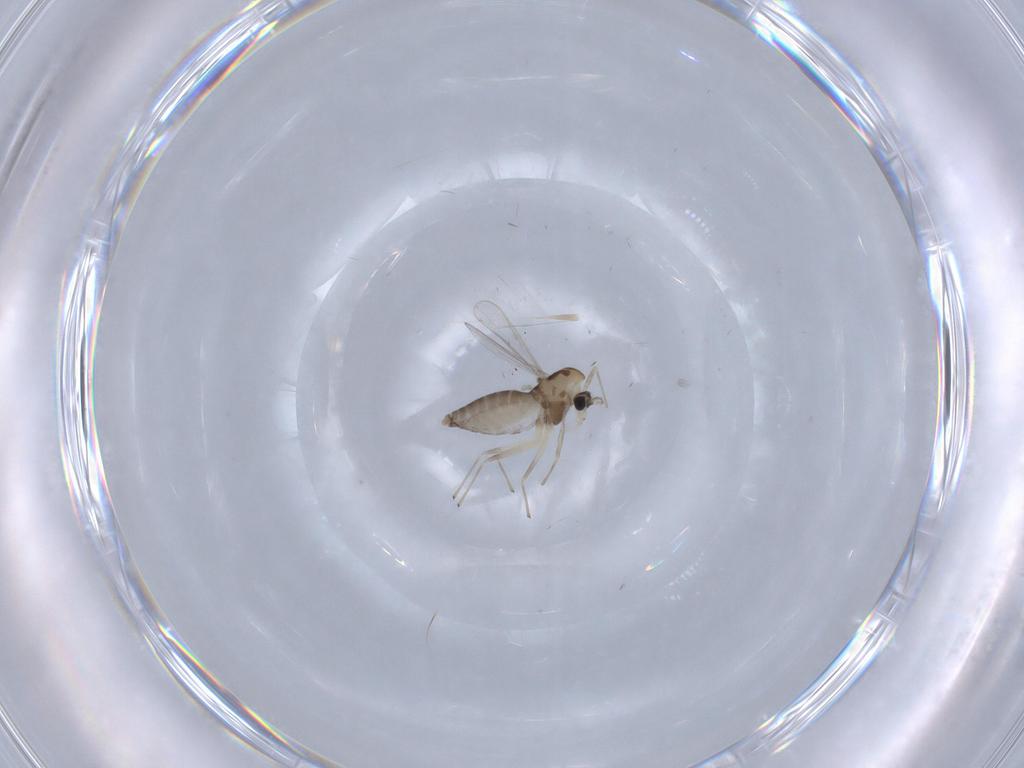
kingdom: Animalia
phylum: Arthropoda
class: Insecta
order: Diptera
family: Chironomidae
